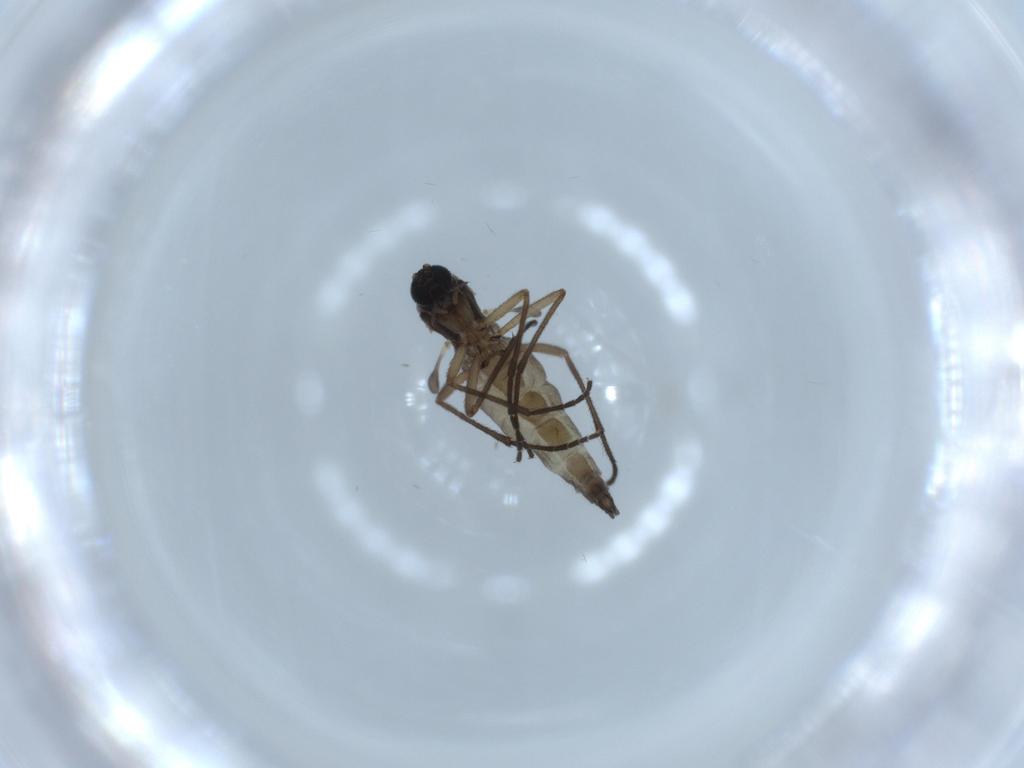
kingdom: Animalia
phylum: Arthropoda
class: Insecta
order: Diptera
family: Sciaridae
